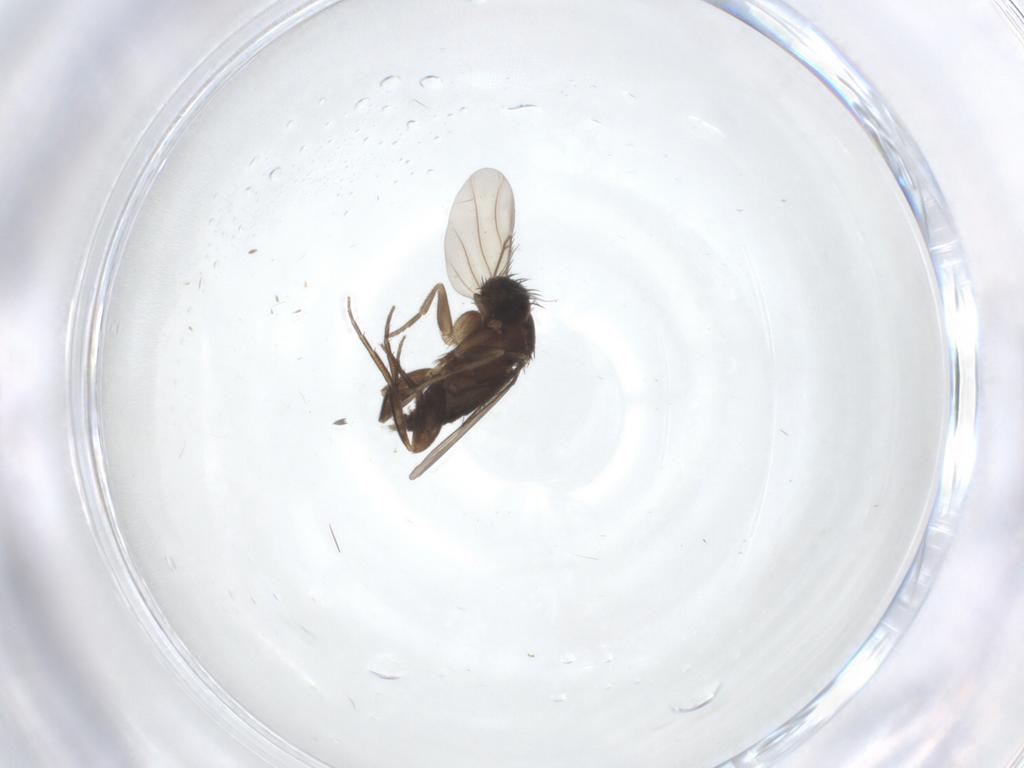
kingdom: Animalia
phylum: Arthropoda
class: Insecta
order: Diptera
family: Phoridae
